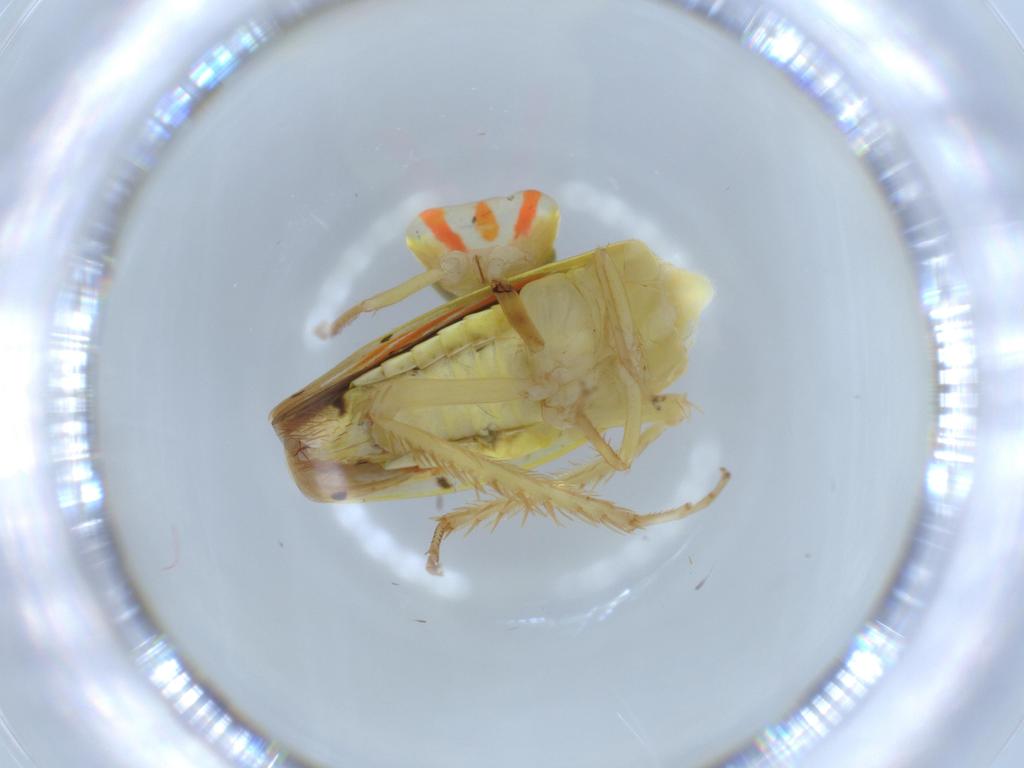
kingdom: Animalia
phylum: Arthropoda
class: Insecta
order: Hemiptera
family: Cicadellidae
